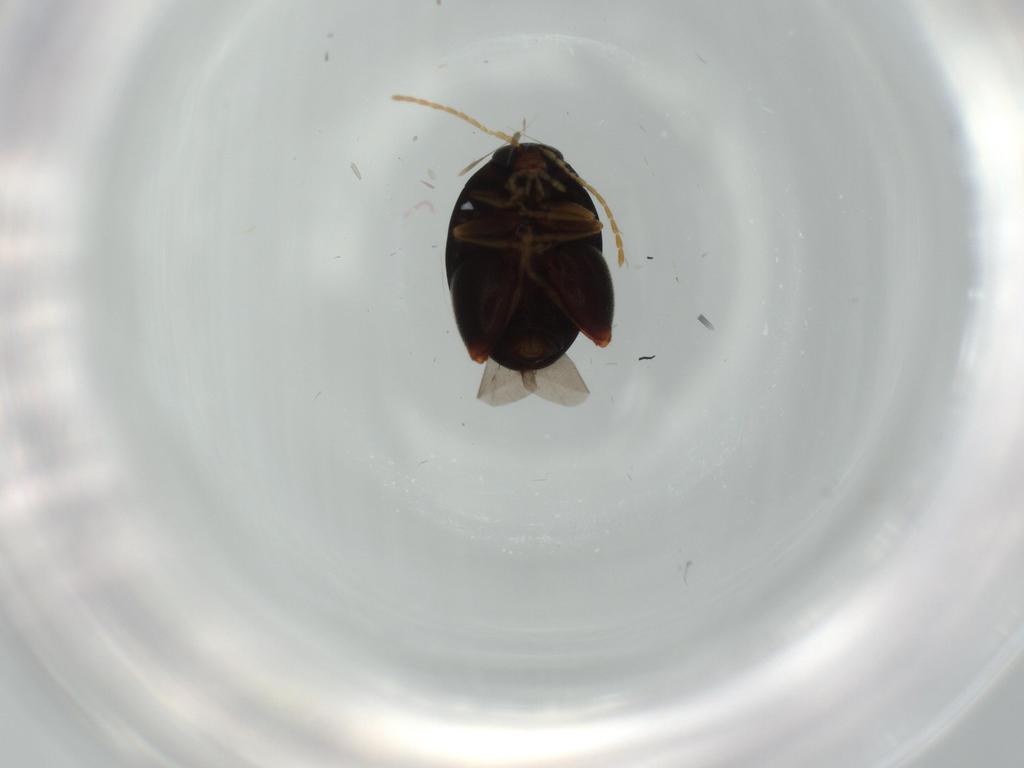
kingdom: Animalia
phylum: Arthropoda
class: Insecta
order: Coleoptera
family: Chrysomelidae
